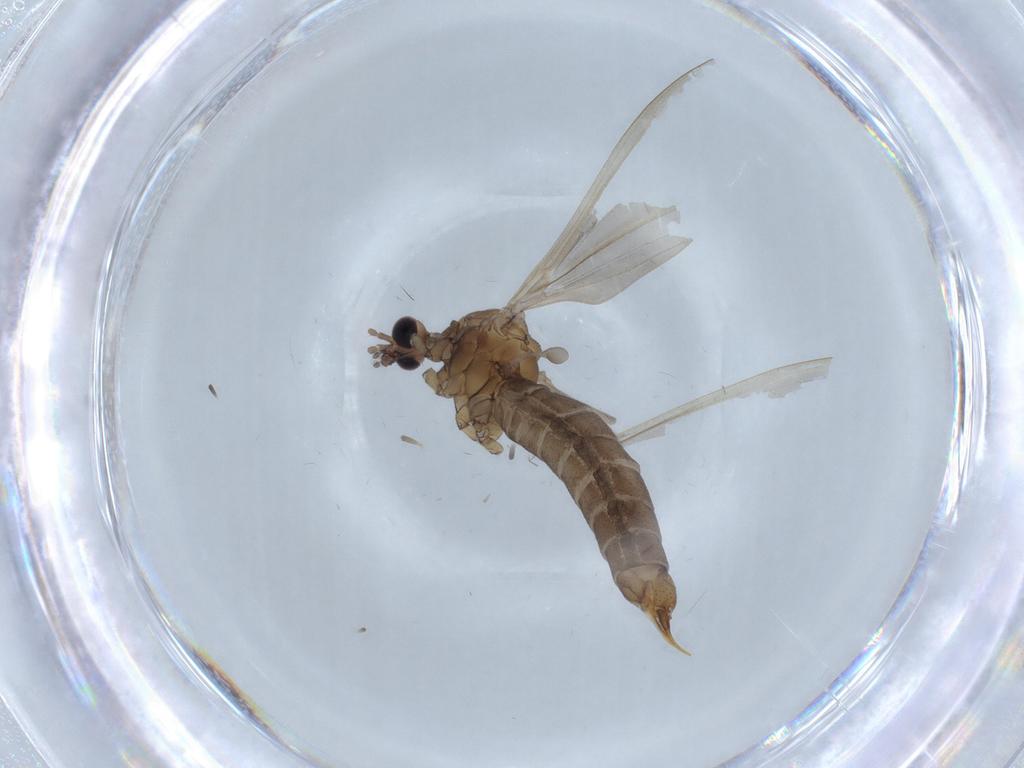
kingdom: Animalia
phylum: Arthropoda
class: Insecta
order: Diptera
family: Limoniidae
